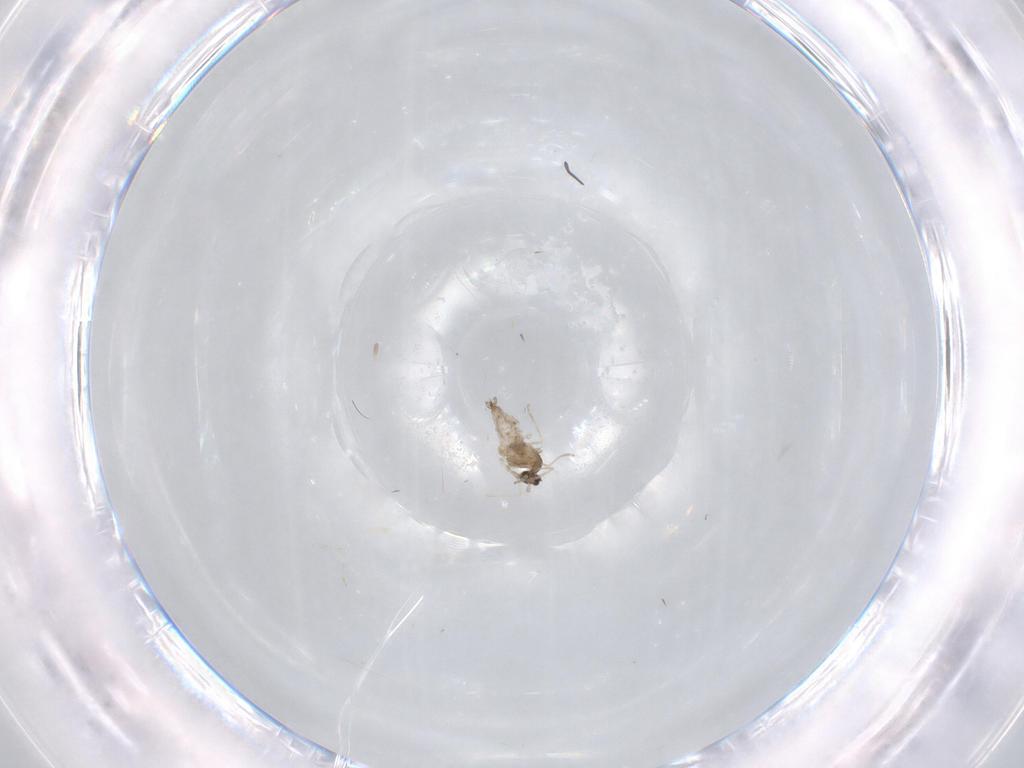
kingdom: Animalia
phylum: Arthropoda
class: Insecta
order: Diptera
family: Cecidomyiidae
